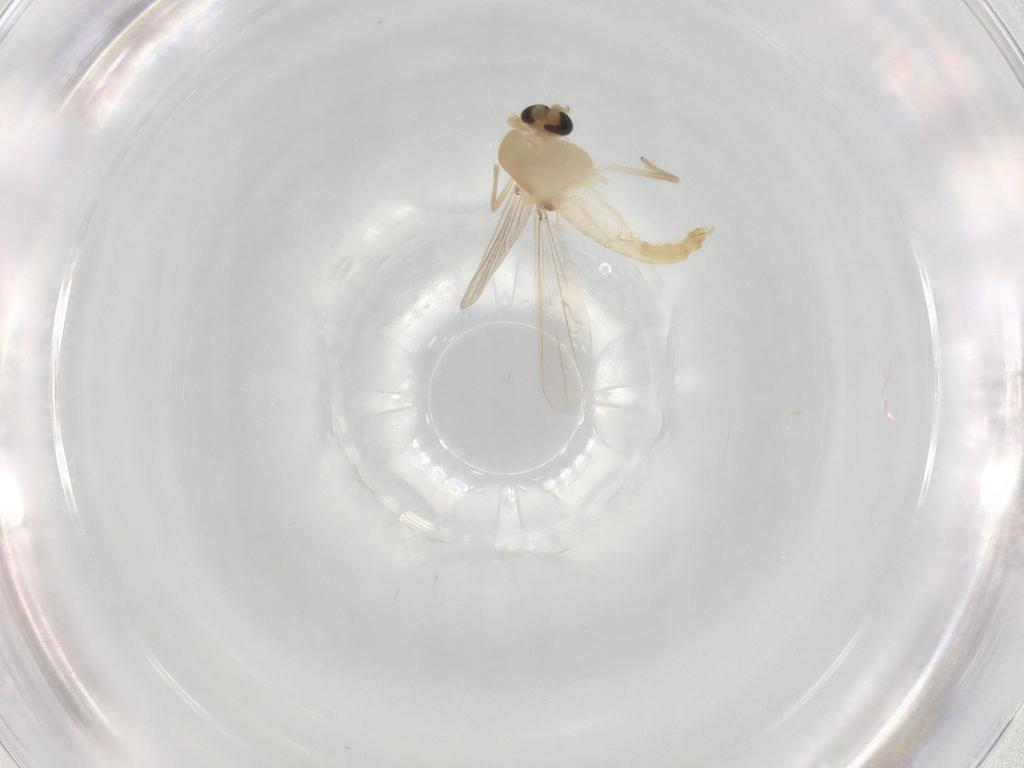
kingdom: Animalia
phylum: Arthropoda
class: Insecta
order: Diptera
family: Chironomidae
